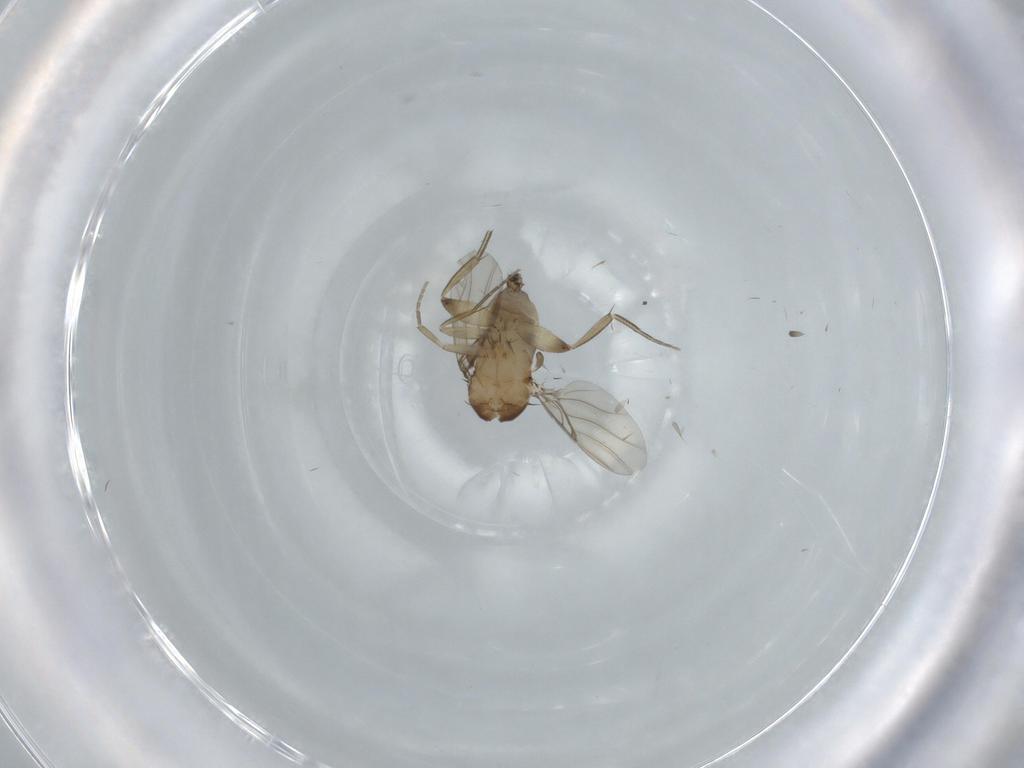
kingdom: Animalia
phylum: Arthropoda
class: Insecta
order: Diptera
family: Phoridae
